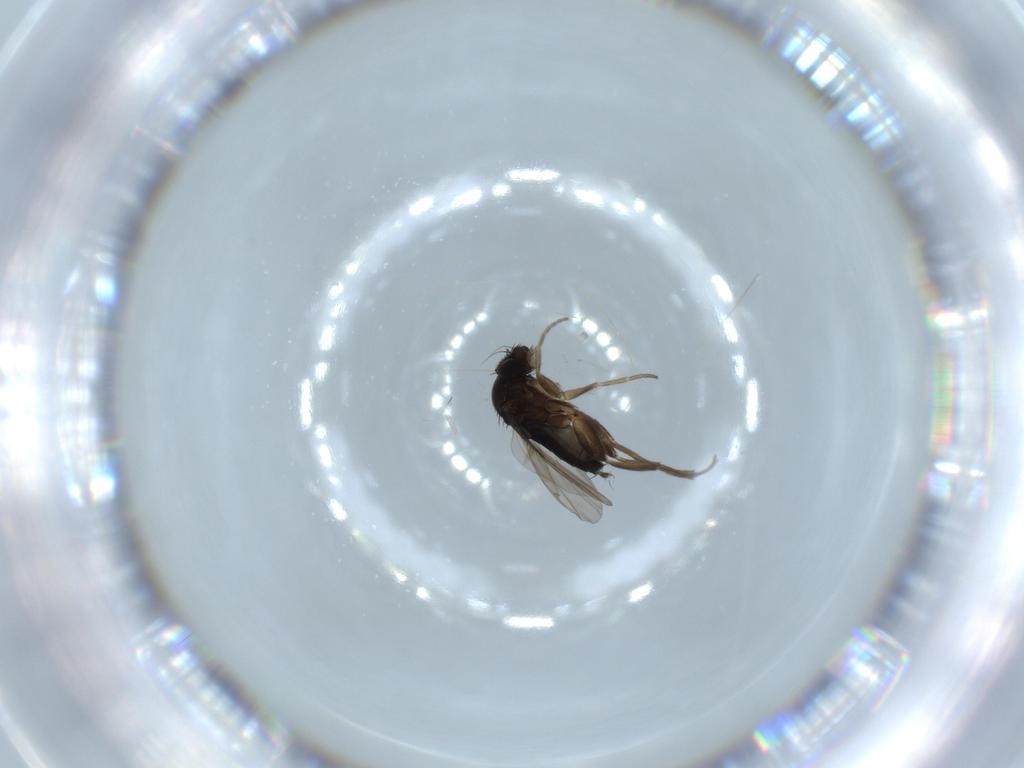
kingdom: Animalia
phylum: Arthropoda
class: Insecta
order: Diptera
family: Phoridae
